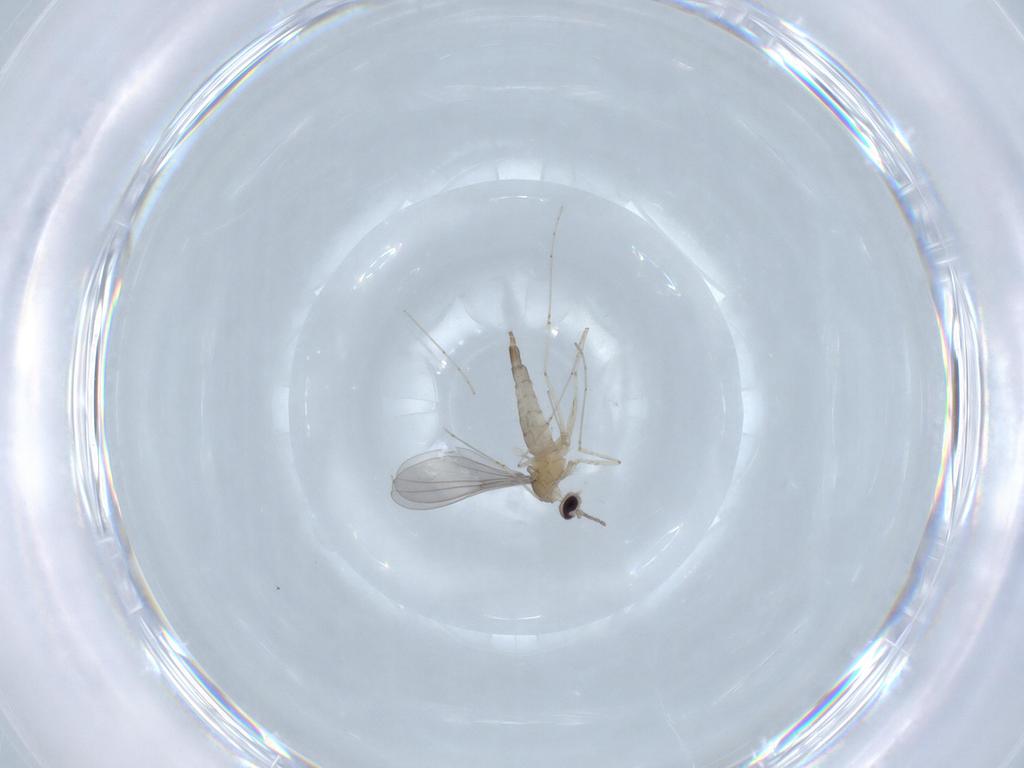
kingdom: Animalia
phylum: Arthropoda
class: Insecta
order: Diptera
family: Cecidomyiidae
